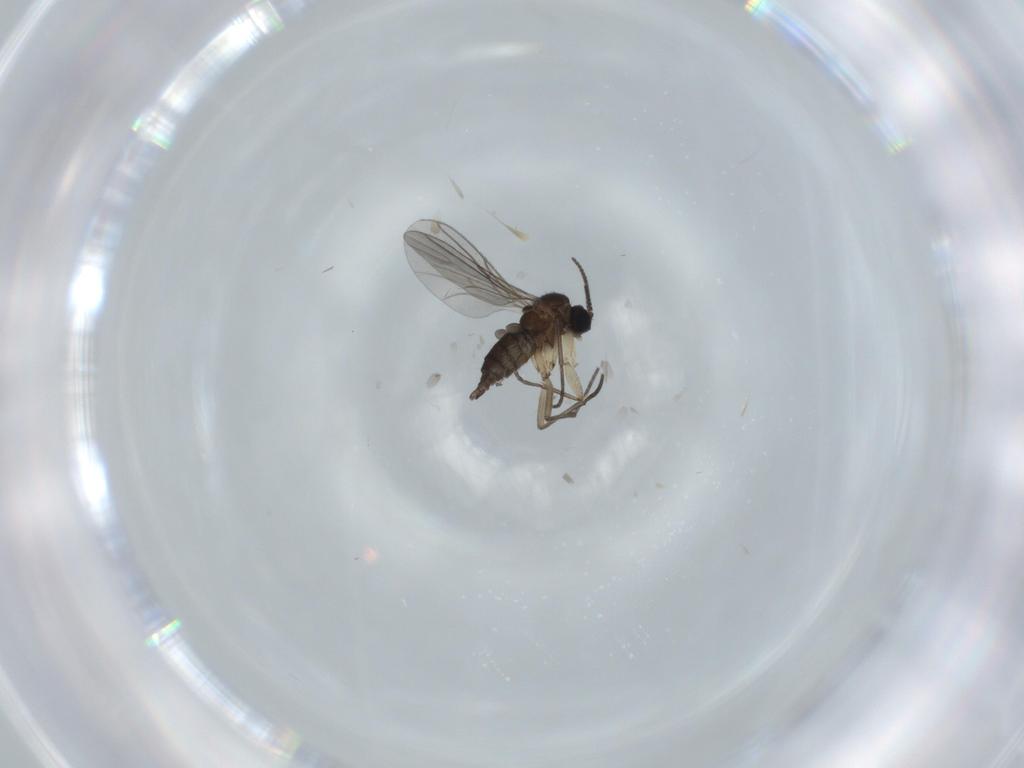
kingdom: Animalia
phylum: Arthropoda
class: Insecta
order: Diptera
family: Sciaridae
